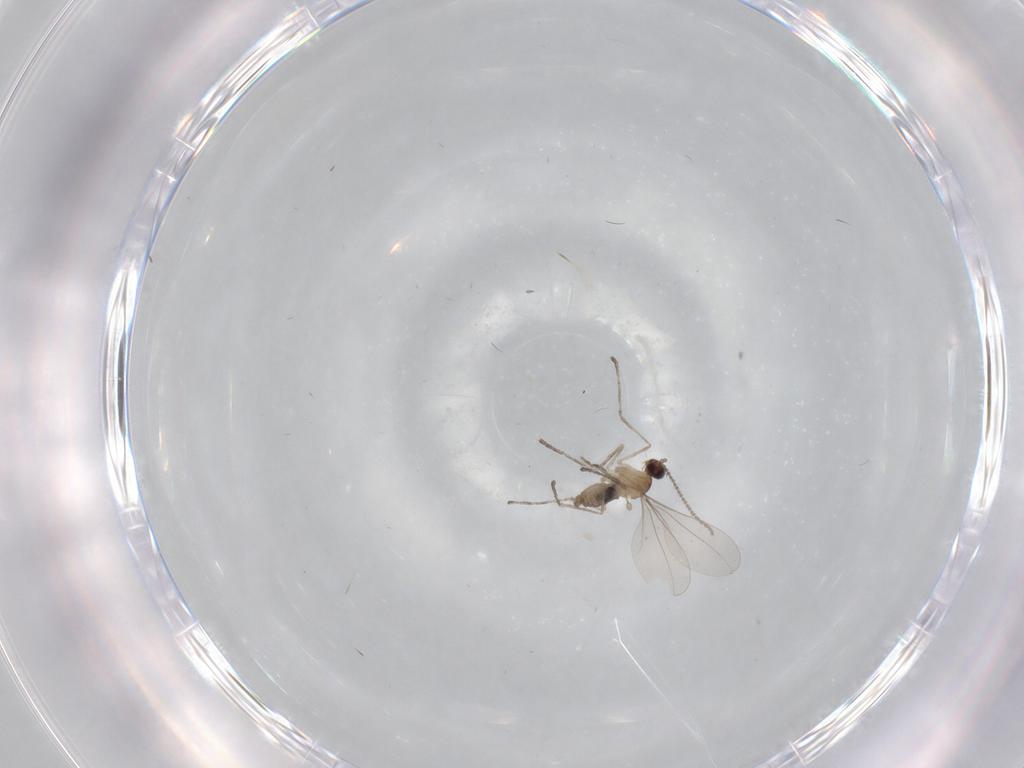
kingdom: Animalia
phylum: Arthropoda
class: Insecta
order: Diptera
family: Cecidomyiidae
